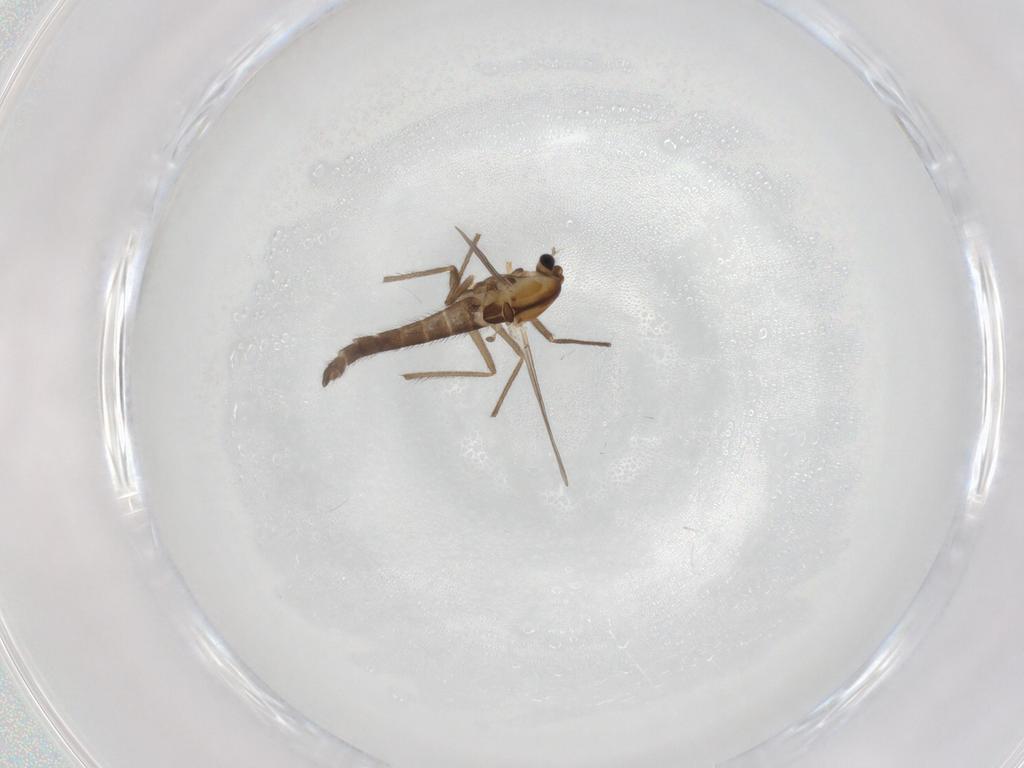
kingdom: Animalia
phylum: Arthropoda
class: Insecta
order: Diptera
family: Chironomidae
